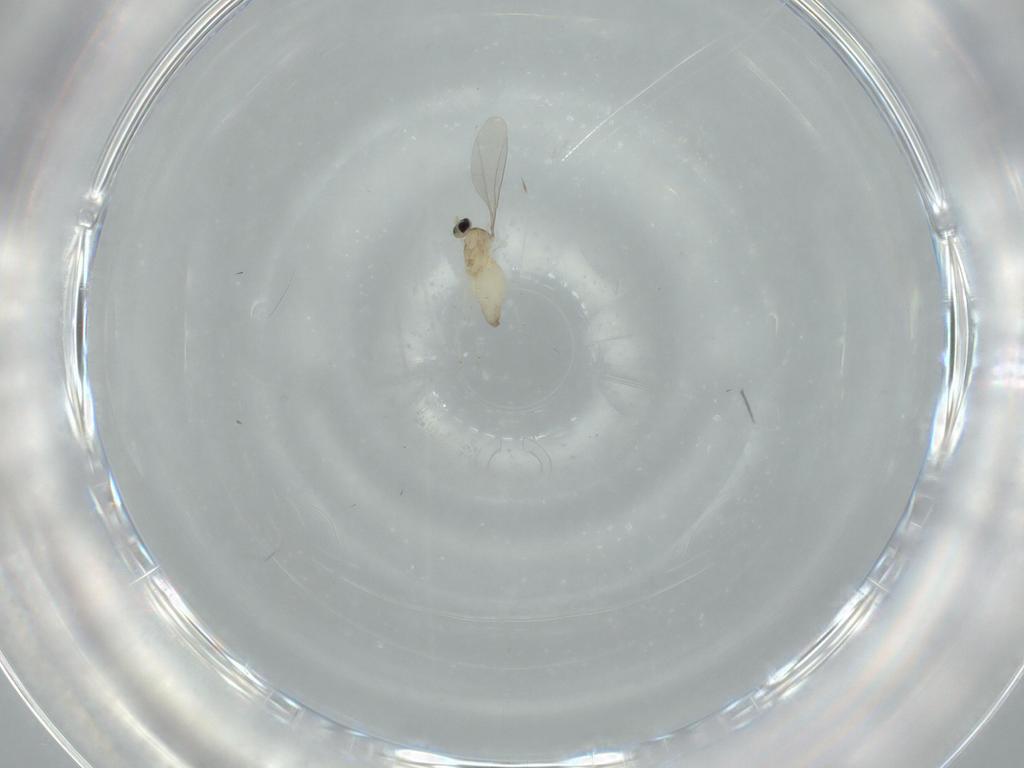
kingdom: Animalia
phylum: Arthropoda
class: Insecta
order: Diptera
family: Cecidomyiidae
